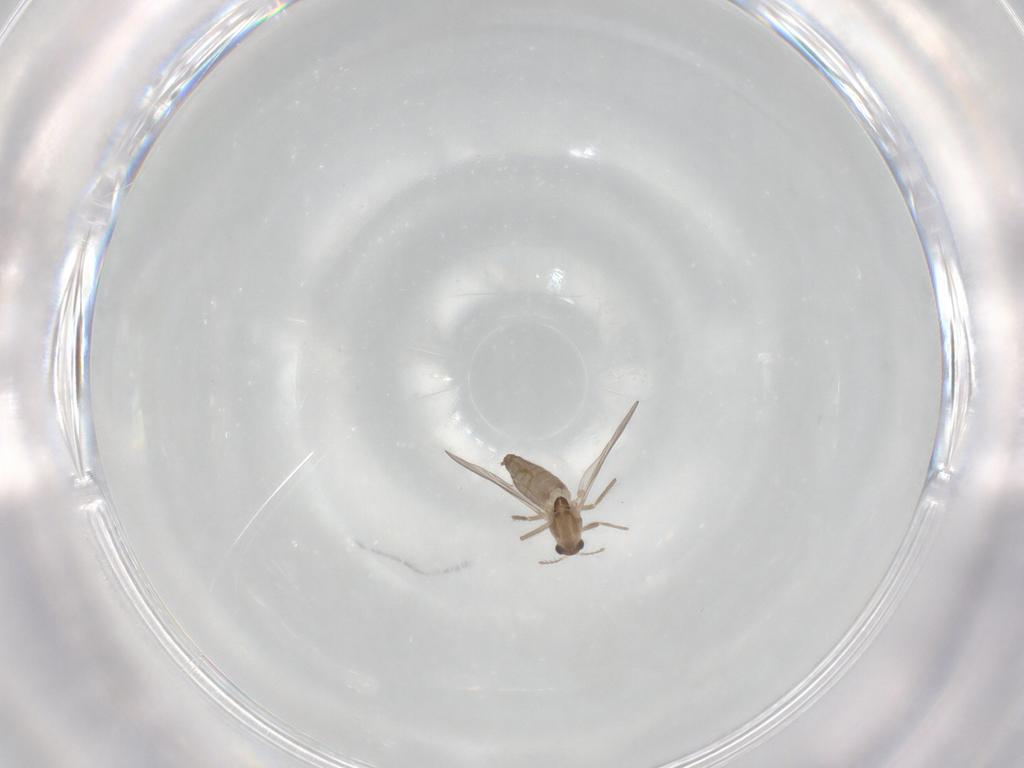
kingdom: Animalia
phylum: Arthropoda
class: Insecta
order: Diptera
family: Chironomidae
